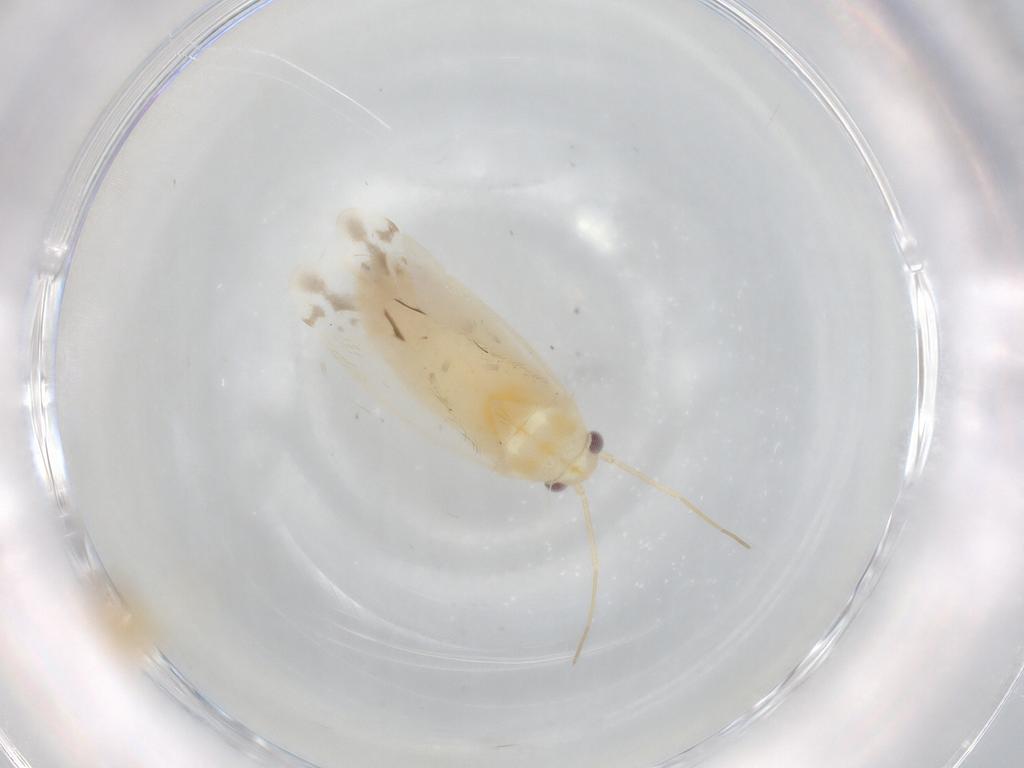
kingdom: Animalia
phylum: Arthropoda
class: Insecta
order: Hemiptera
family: Miridae
